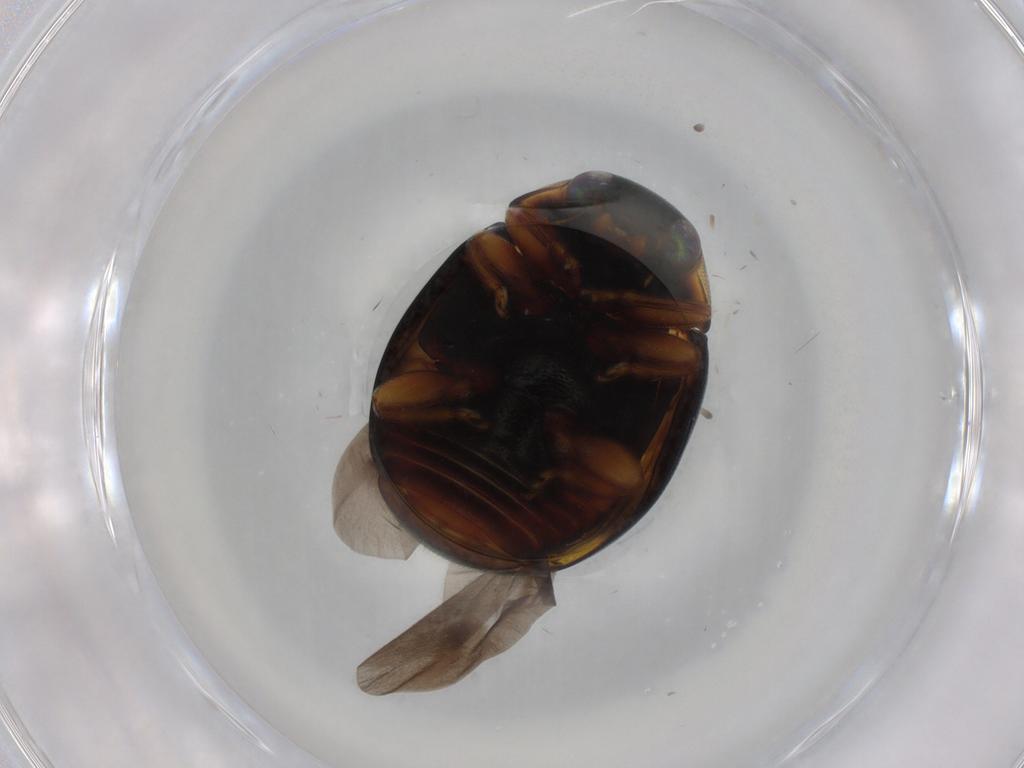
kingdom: Animalia
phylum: Arthropoda
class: Insecta
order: Coleoptera
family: Coccinellidae
